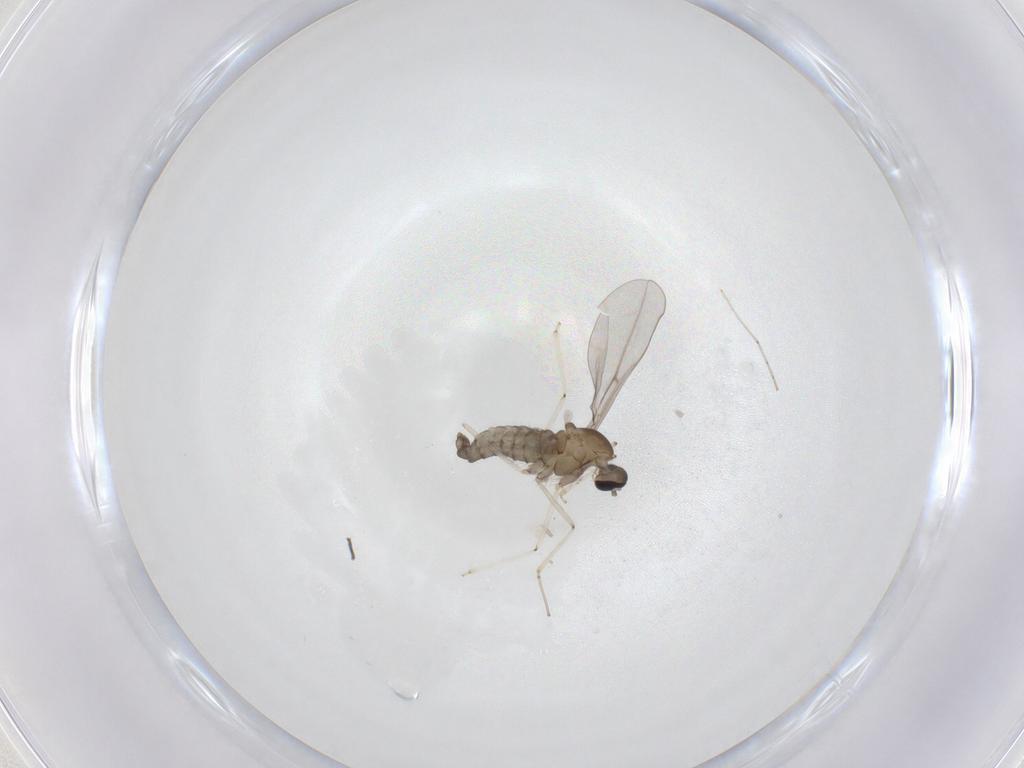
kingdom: Animalia
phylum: Arthropoda
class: Insecta
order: Diptera
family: Cecidomyiidae
